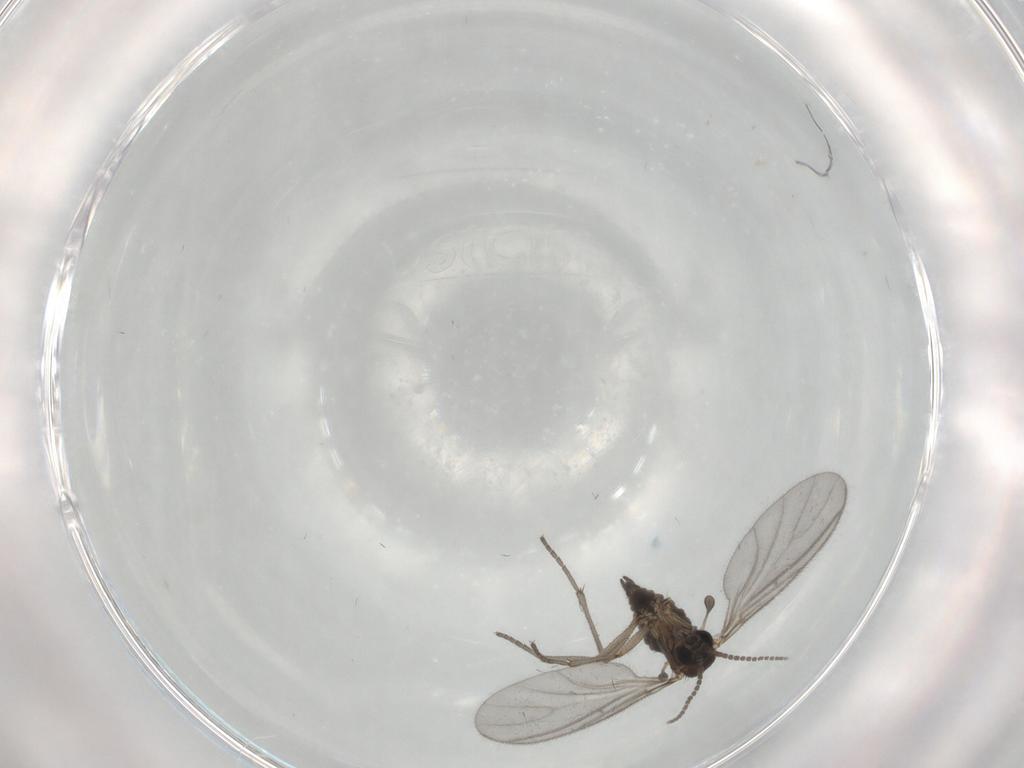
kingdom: Animalia
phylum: Arthropoda
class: Insecta
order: Diptera
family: Sciaridae
